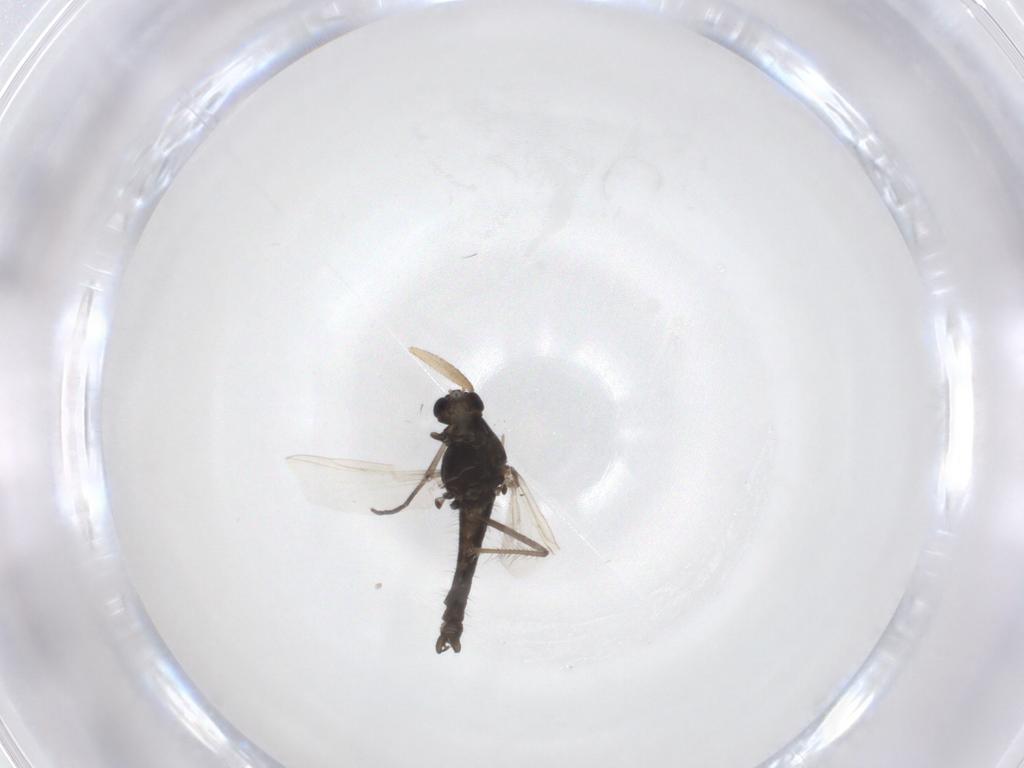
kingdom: Animalia
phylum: Arthropoda
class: Insecta
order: Diptera
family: Sciaridae
